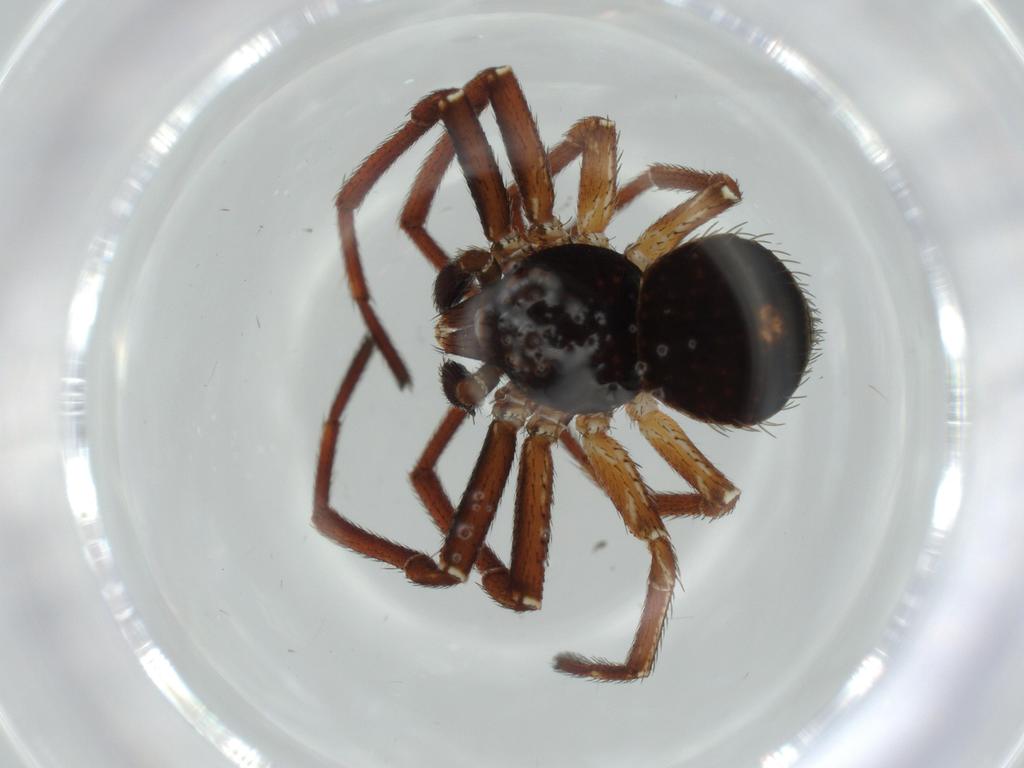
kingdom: Animalia
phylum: Arthropoda
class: Arachnida
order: Araneae
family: Thomisidae
